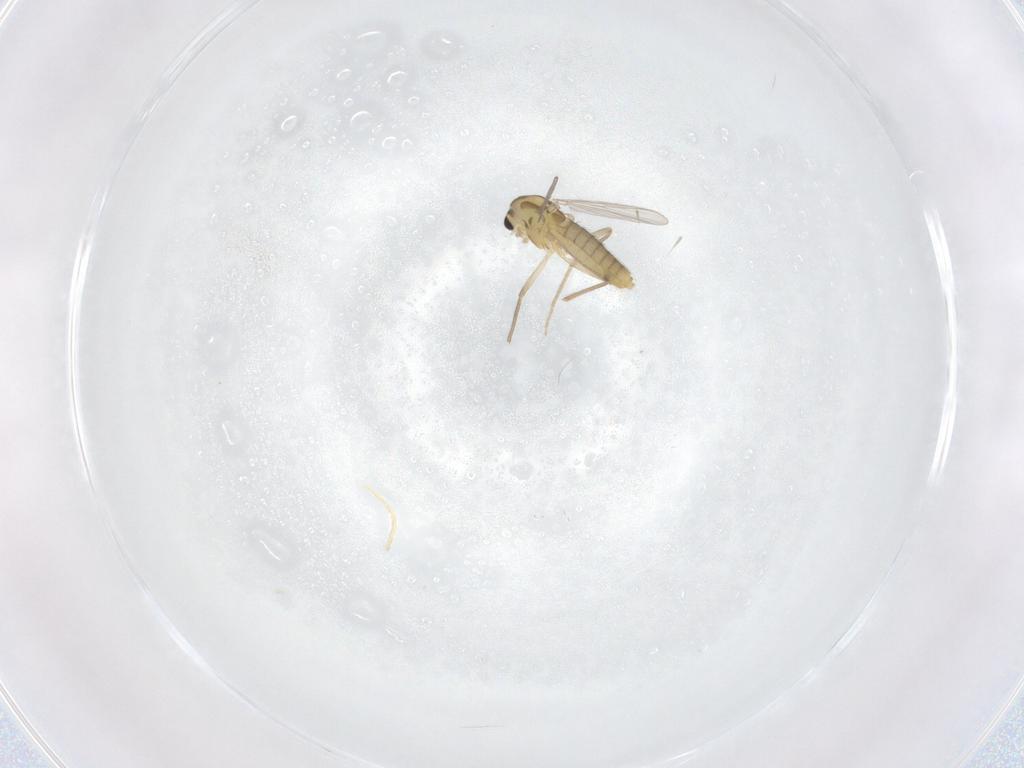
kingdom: Animalia
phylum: Arthropoda
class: Insecta
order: Diptera
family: Chironomidae
